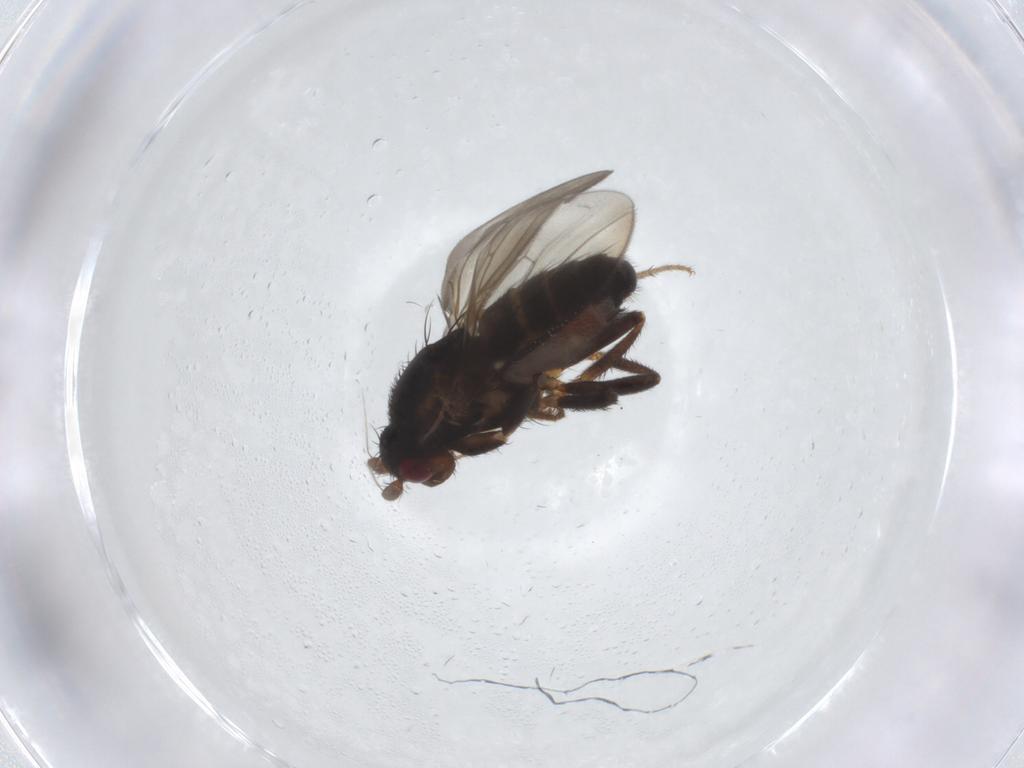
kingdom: Animalia
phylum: Arthropoda
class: Insecta
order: Diptera
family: Sphaeroceridae
